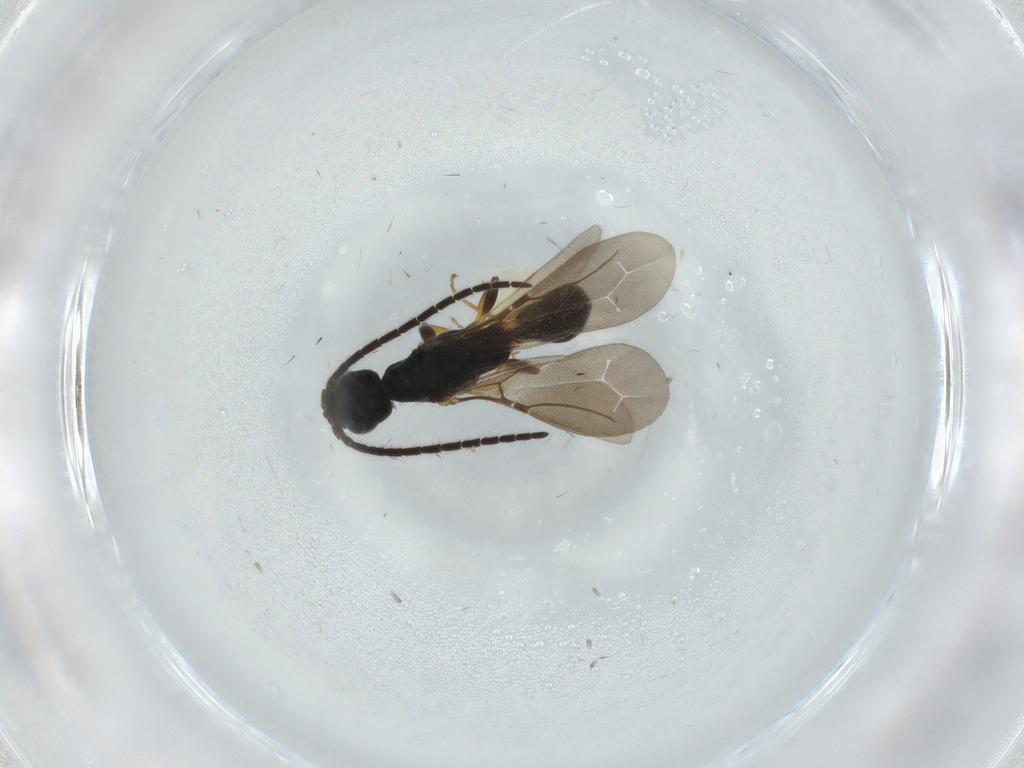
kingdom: Animalia
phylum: Arthropoda
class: Insecta
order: Hymenoptera
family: Bethylidae
